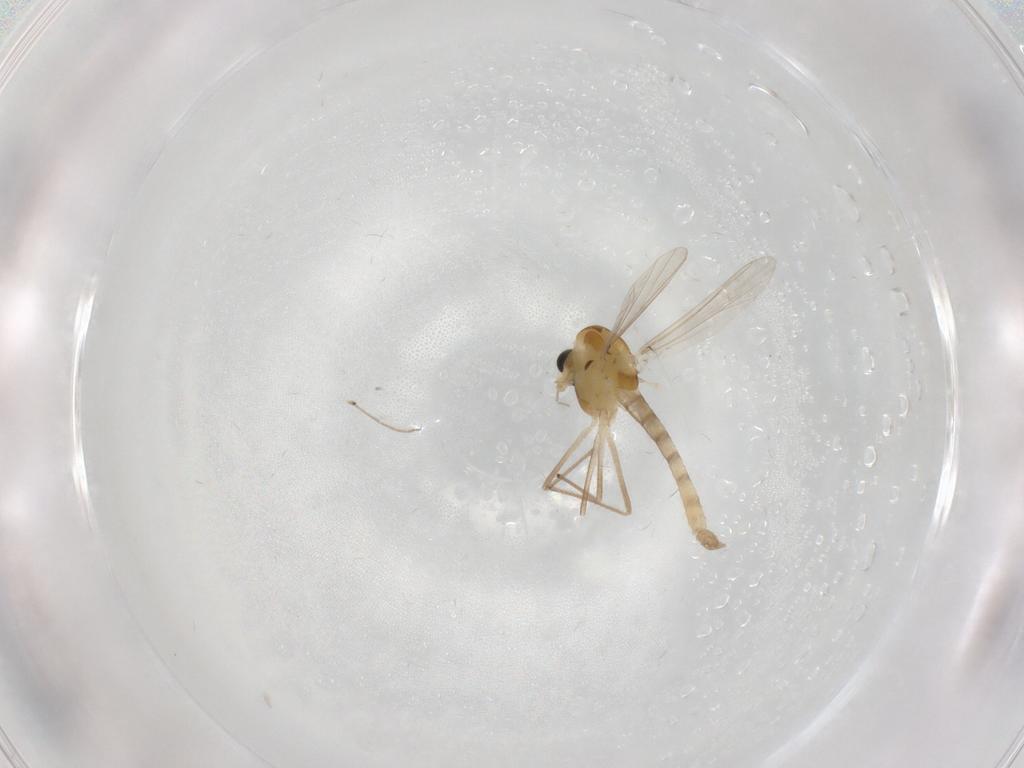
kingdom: Animalia
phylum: Arthropoda
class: Insecta
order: Diptera
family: Chironomidae
